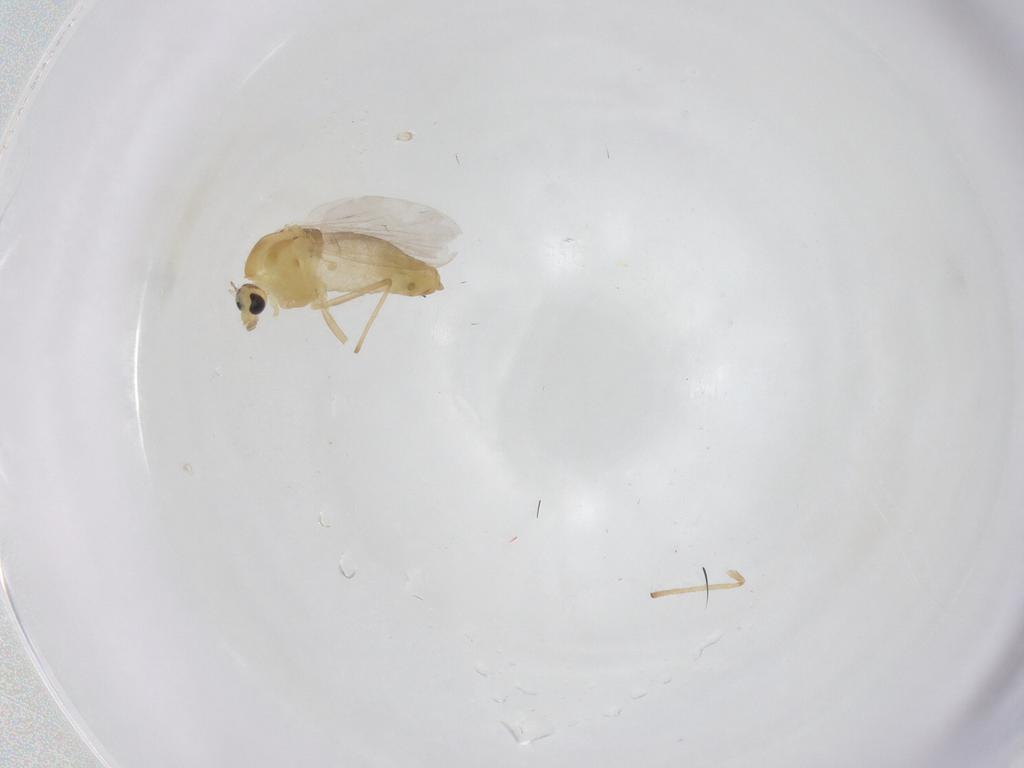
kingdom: Animalia
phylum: Arthropoda
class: Insecta
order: Diptera
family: Chironomidae
